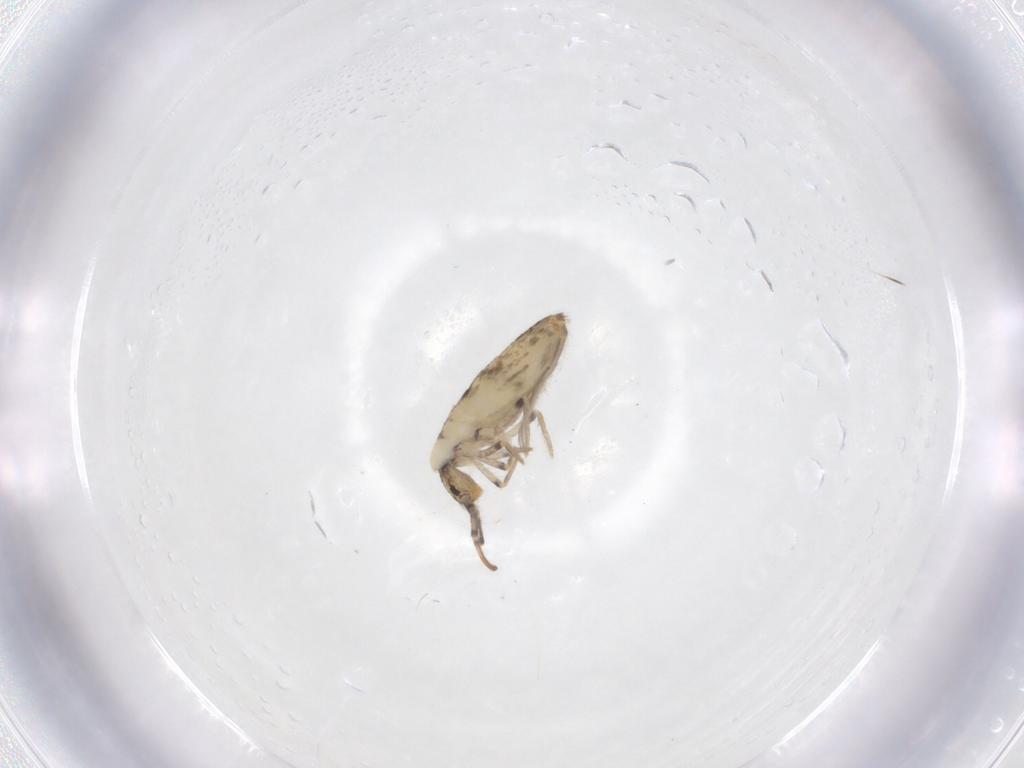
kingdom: Animalia
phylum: Arthropoda
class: Collembola
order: Entomobryomorpha
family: Entomobryidae
